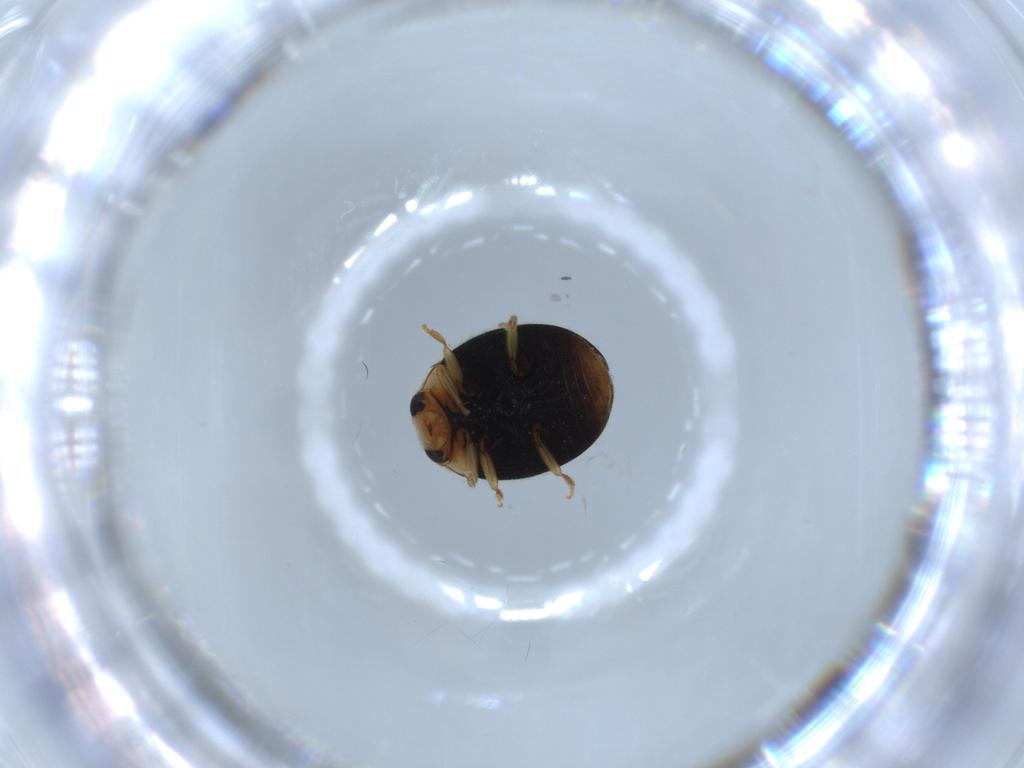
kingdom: Animalia
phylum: Arthropoda
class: Insecta
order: Coleoptera
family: Coccinellidae
